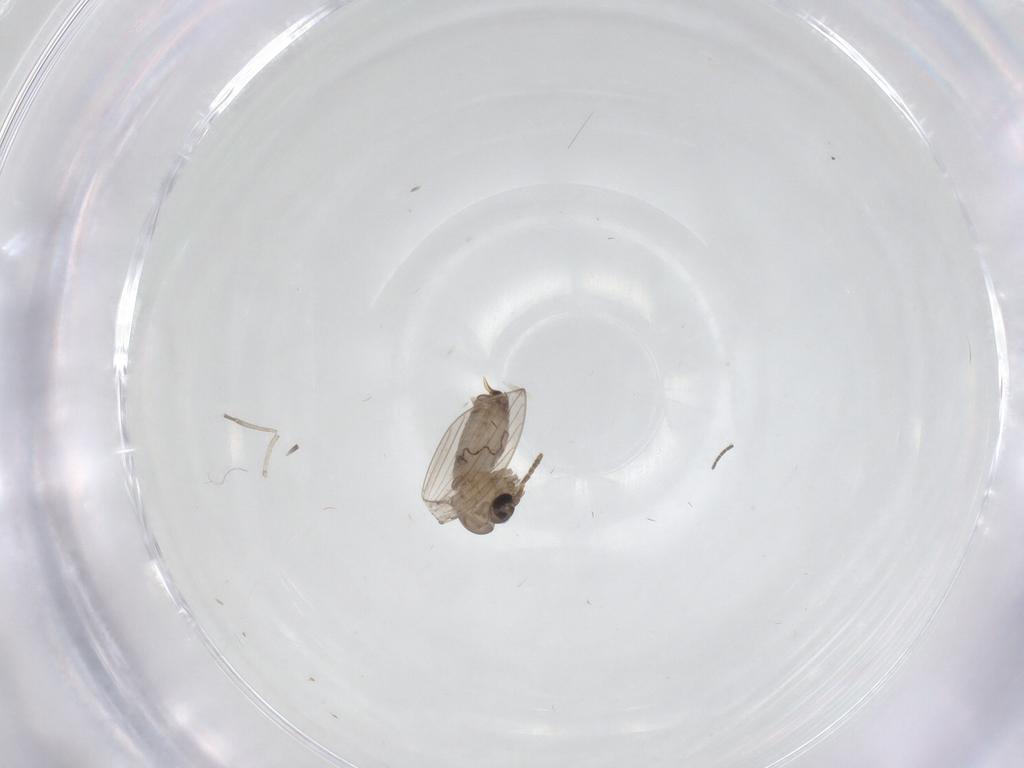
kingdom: Animalia
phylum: Arthropoda
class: Insecta
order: Diptera
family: Psychodidae
